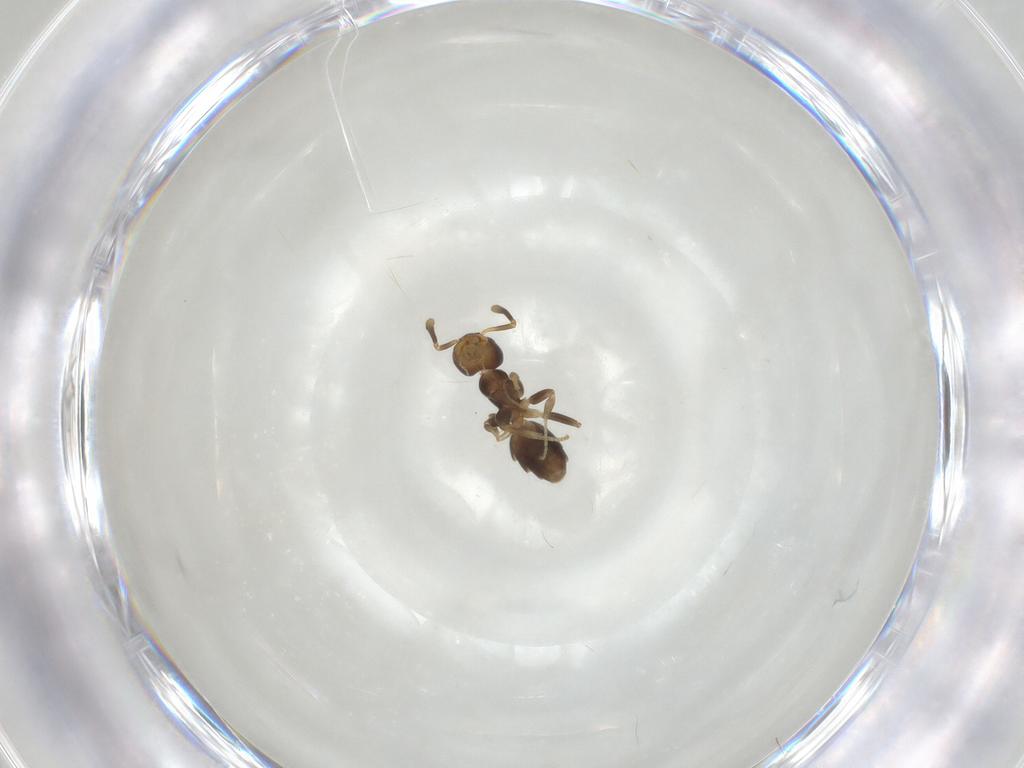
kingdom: Animalia
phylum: Arthropoda
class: Insecta
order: Hymenoptera
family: Formicidae
